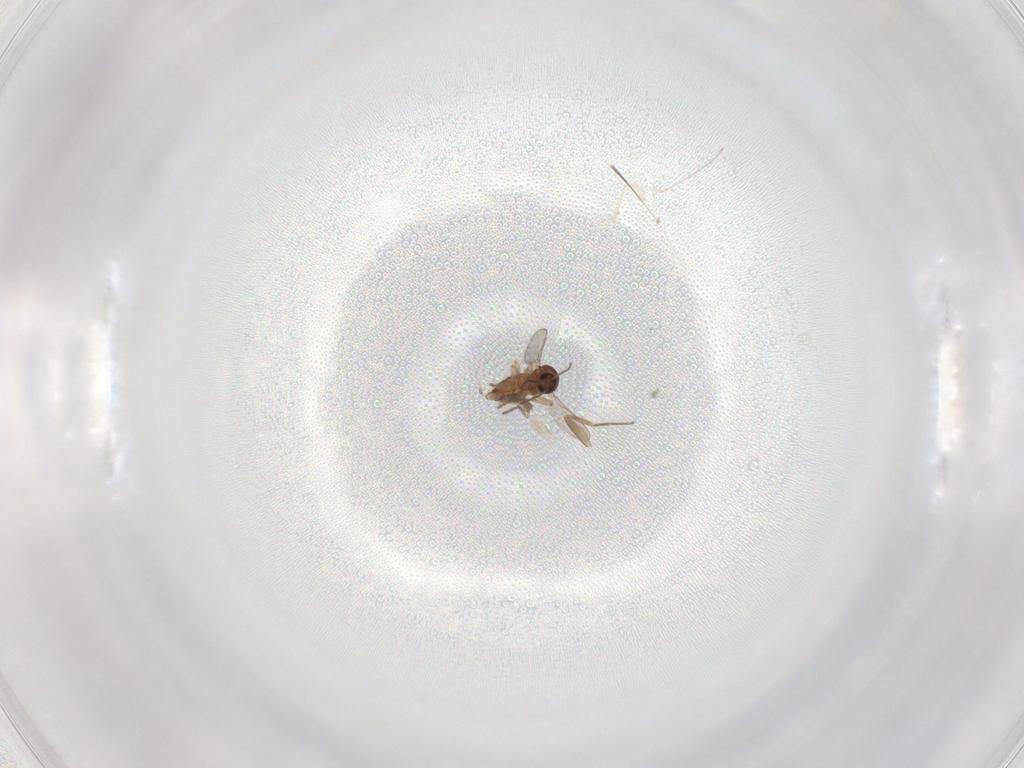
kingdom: Animalia
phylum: Arthropoda
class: Insecta
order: Diptera
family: Ceratopogonidae
